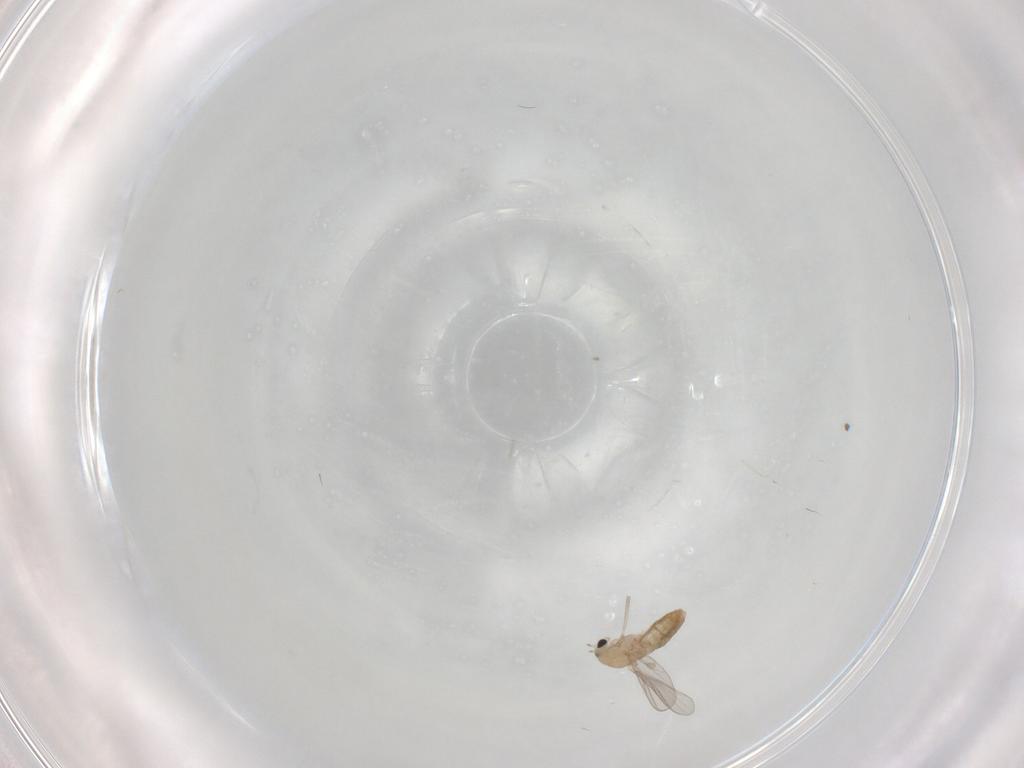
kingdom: Animalia
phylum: Arthropoda
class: Insecta
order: Diptera
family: Chironomidae
